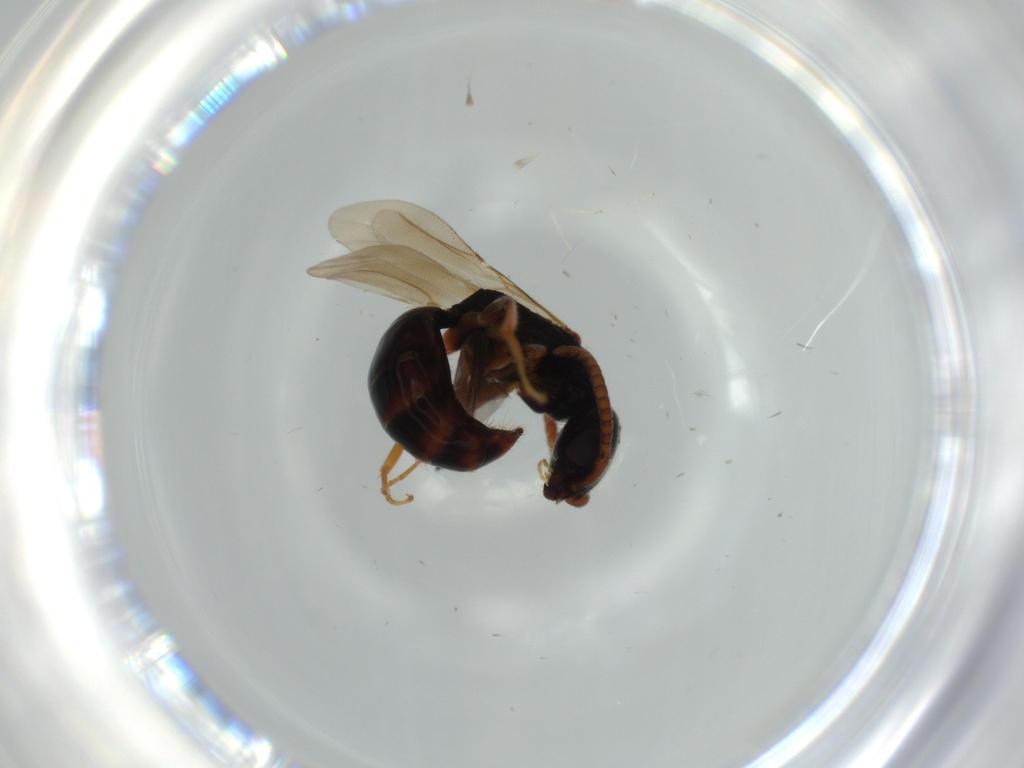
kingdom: Animalia
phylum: Arthropoda
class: Insecta
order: Hymenoptera
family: Bethylidae
